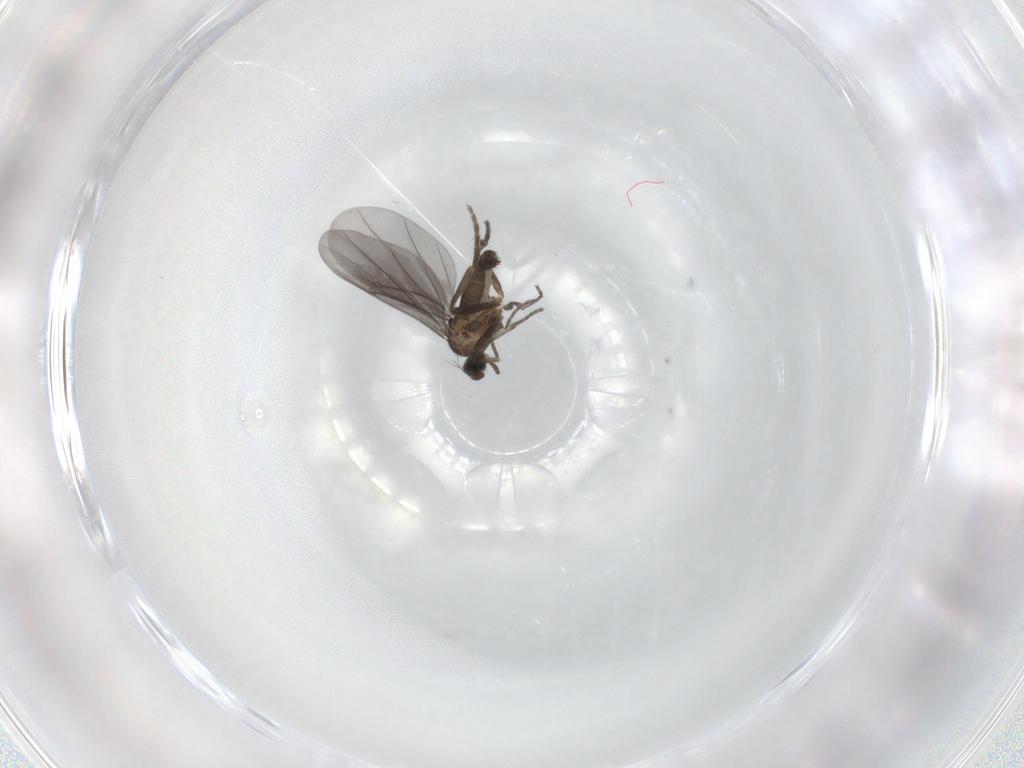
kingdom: Animalia
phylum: Arthropoda
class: Insecta
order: Diptera
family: Phoridae
